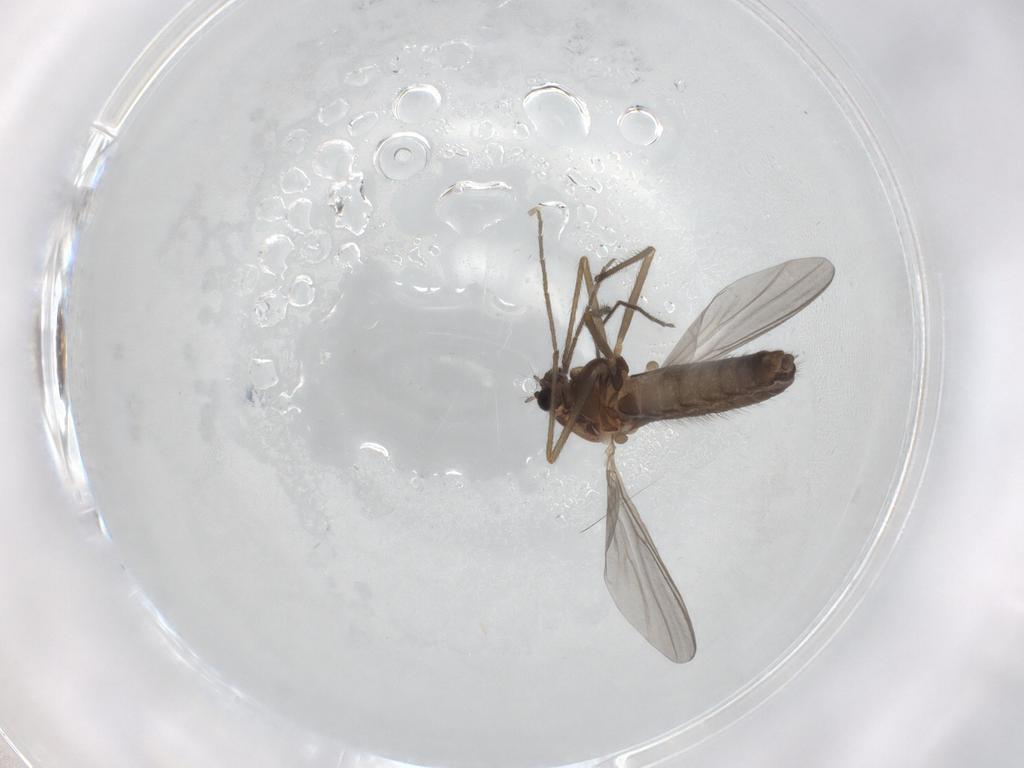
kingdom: Animalia
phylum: Arthropoda
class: Insecta
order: Diptera
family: Chironomidae
